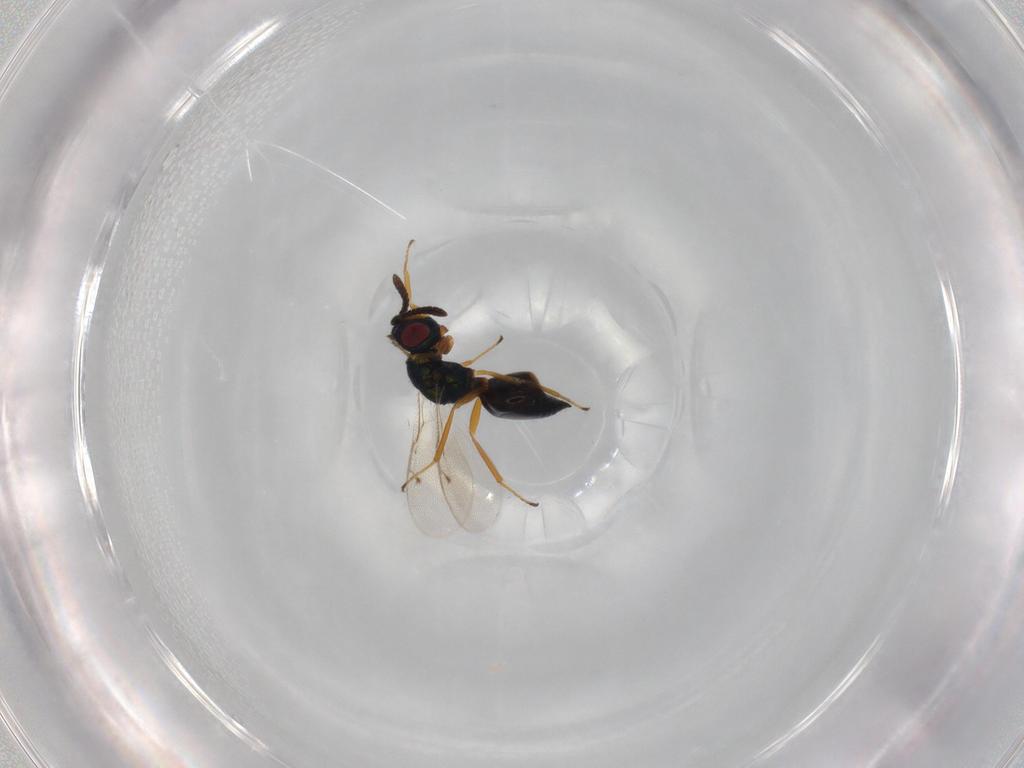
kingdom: Animalia
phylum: Arthropoda
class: Insecta
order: Hymenoptera
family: Pteromalidae
